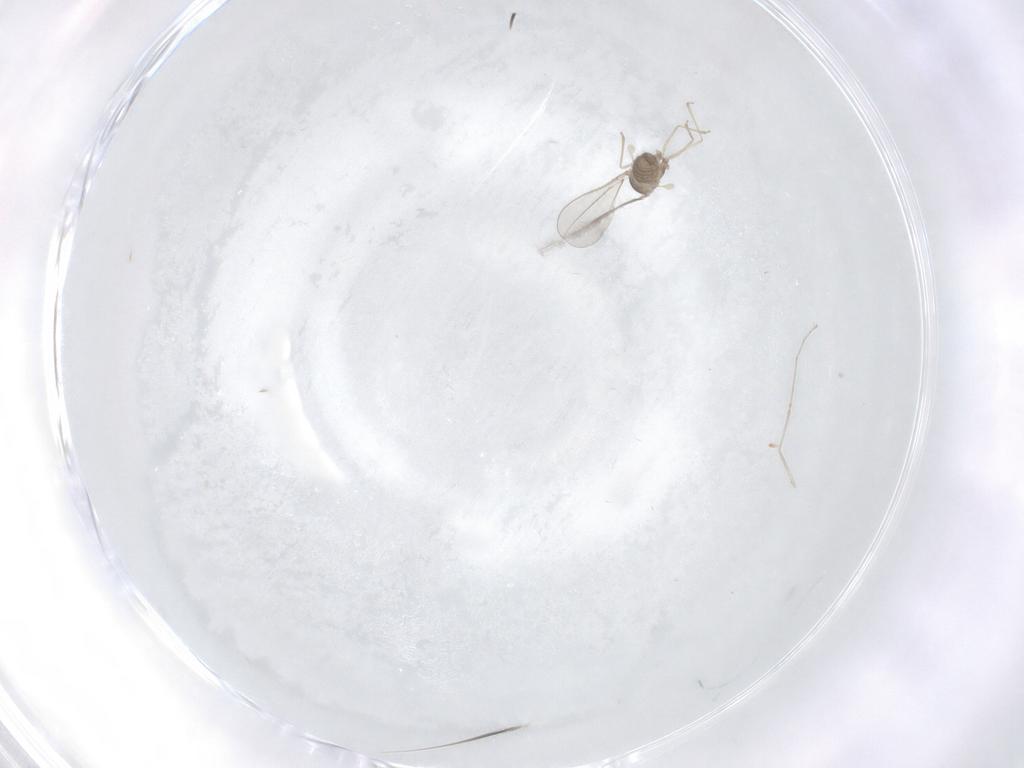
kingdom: Animalia
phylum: Arthropoda
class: Insecta
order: Diptera
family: Cecidomyiidae
